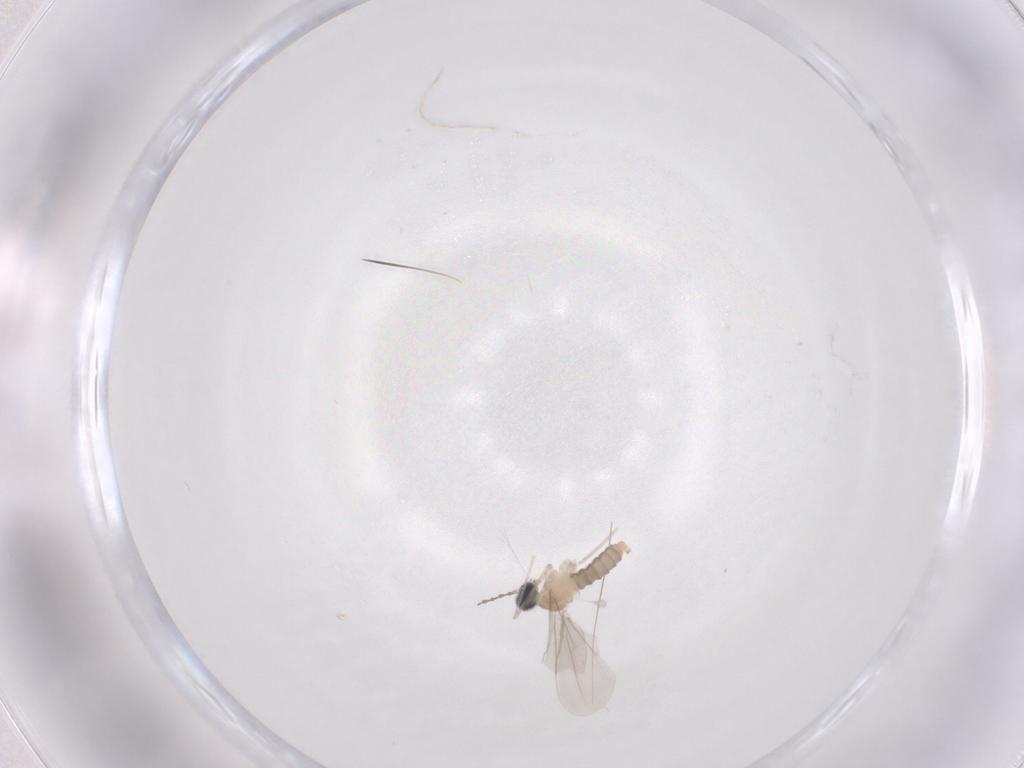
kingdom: Animalia
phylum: Arthropoda
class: Insecta
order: Diptera
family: Cecidomyiidae
